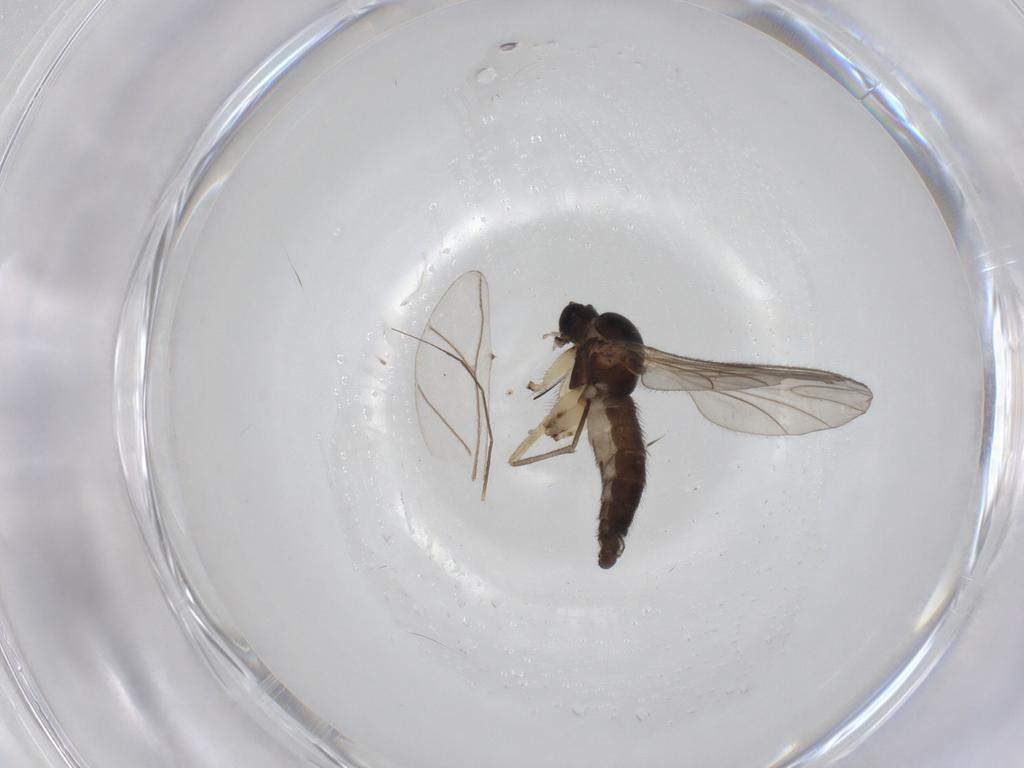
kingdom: Animalia
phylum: Arthropoda
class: Insecta
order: Diptera
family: Sciaridae
